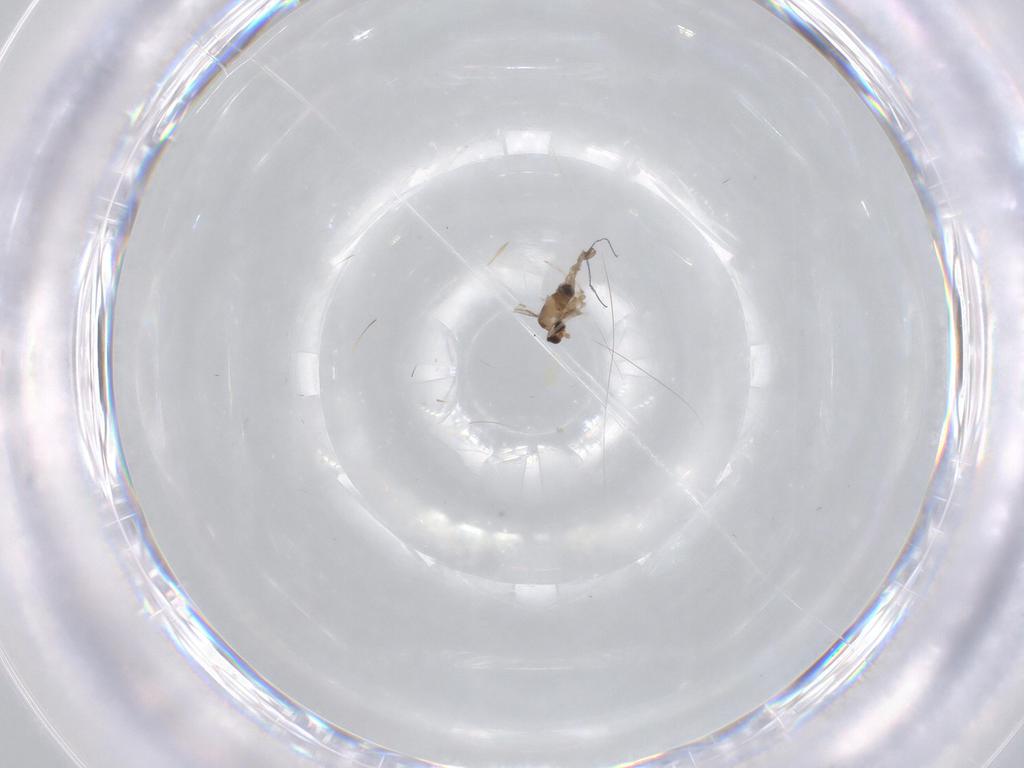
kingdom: Animalia
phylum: Arthropoda
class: Insecta
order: Diptera
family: Cecidomyiidae
